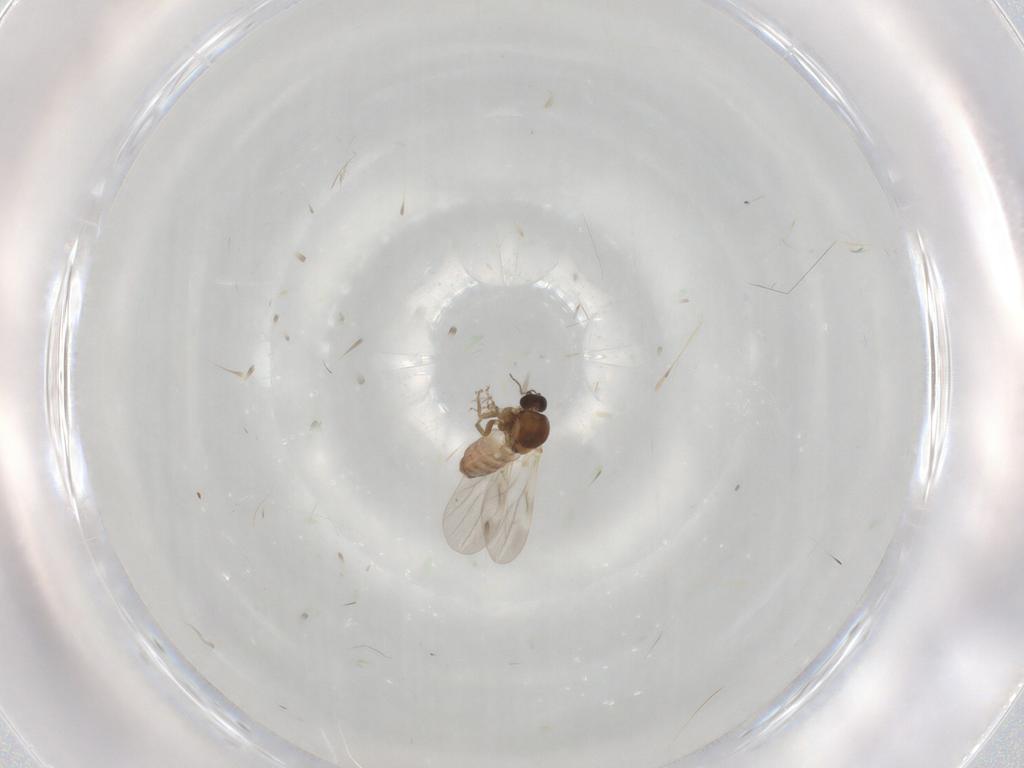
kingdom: Animalia
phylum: Arthropoda
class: Insecta
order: Diptera
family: Ceratopogonidae
